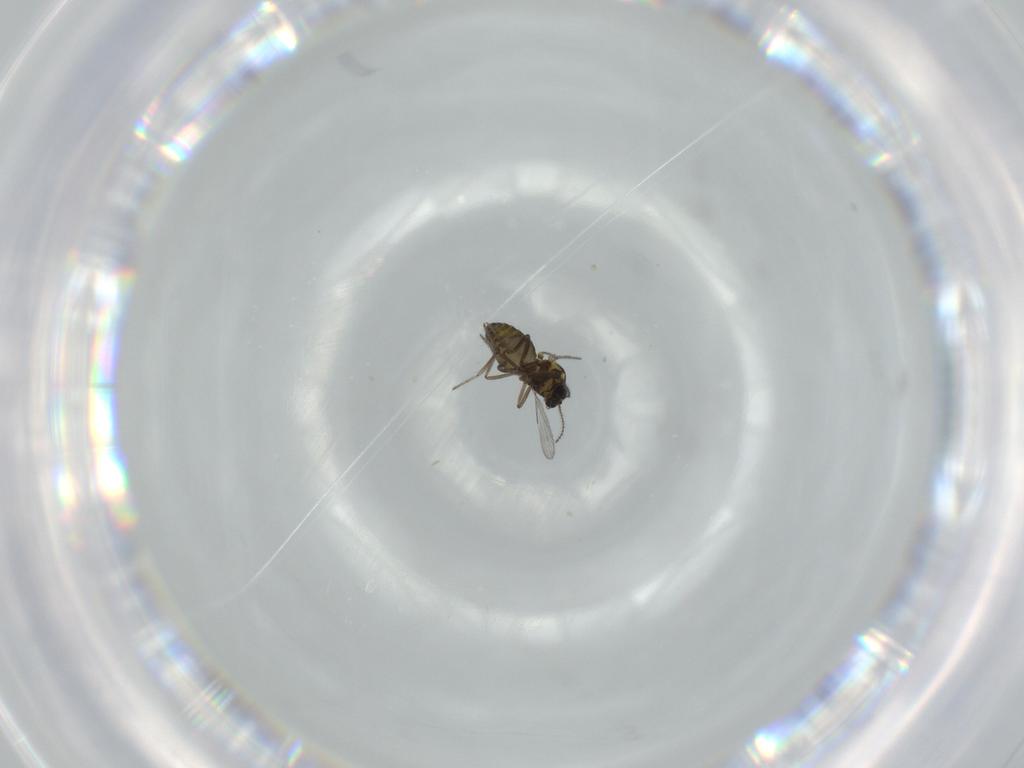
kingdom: Animalia
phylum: Arthropoda
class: Insecta
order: Diptera
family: Ceratopogonidae
